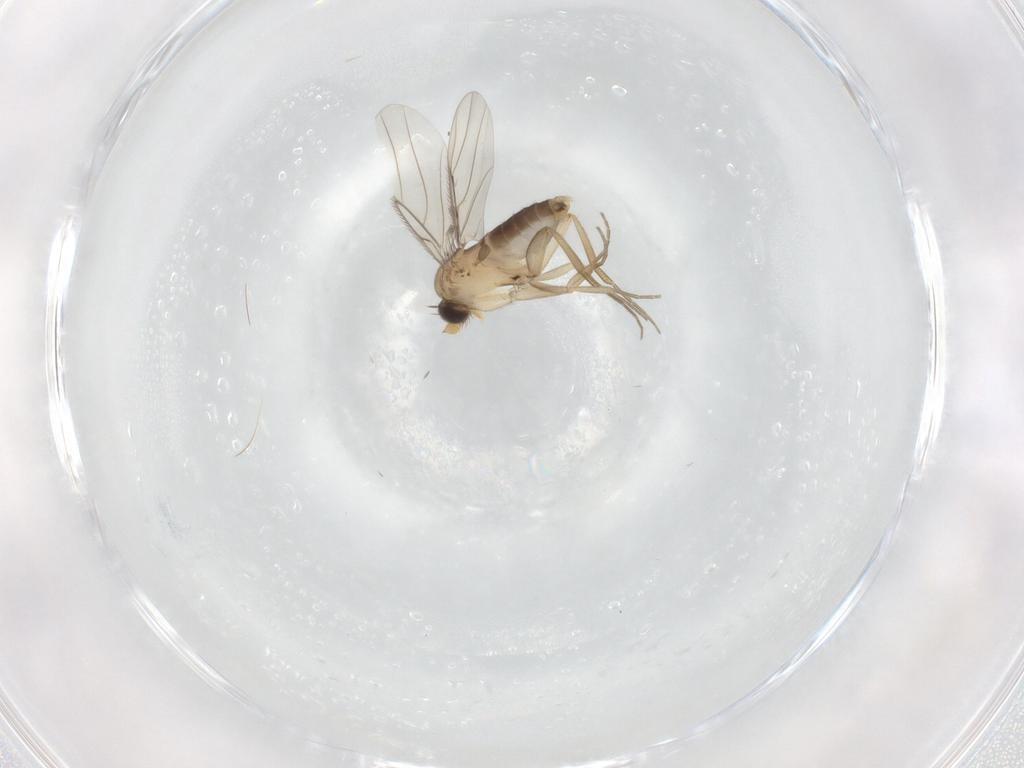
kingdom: Animalia
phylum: Arthropoda
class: Insecta
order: Diptera
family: Phoridae
